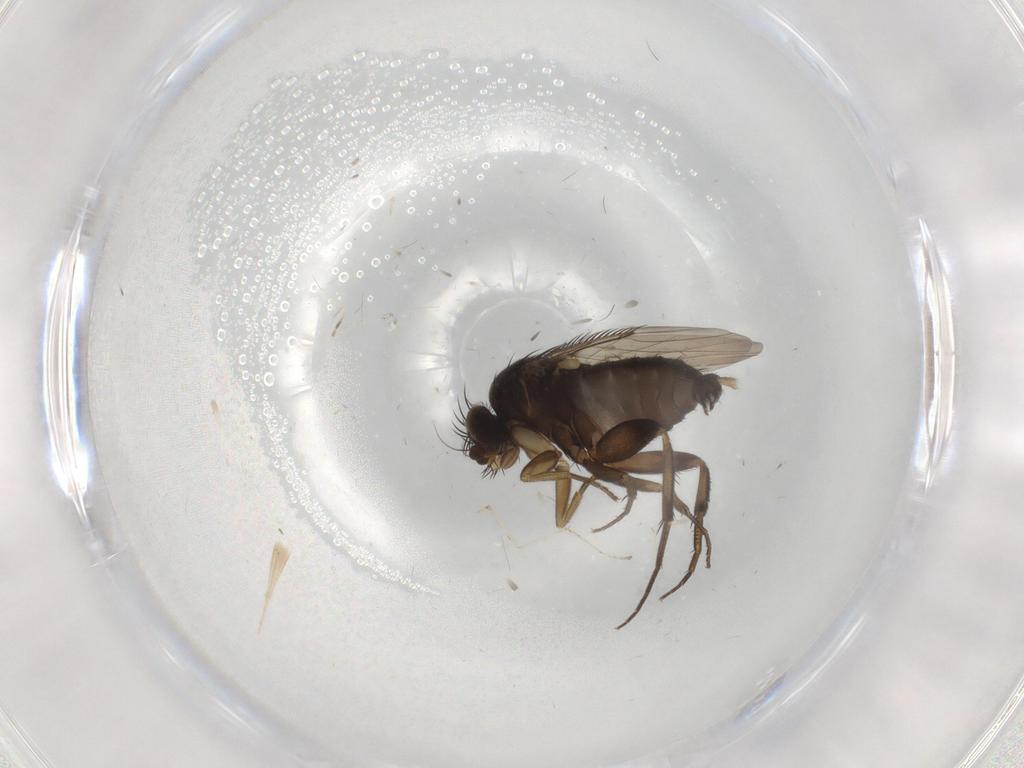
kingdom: Animalia
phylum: Arthropoda
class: Insecta
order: Diptera
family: Phoridae
